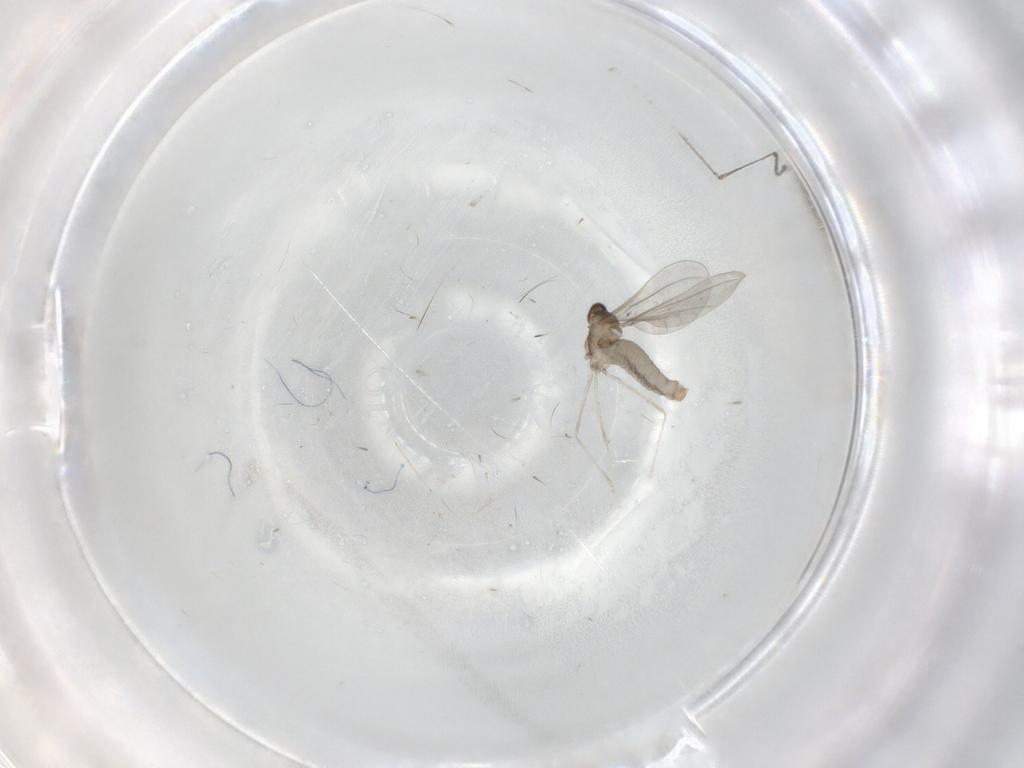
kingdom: Animalia
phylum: Arthropoda
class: Insecta
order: Diptera
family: Cecidomyiidae
